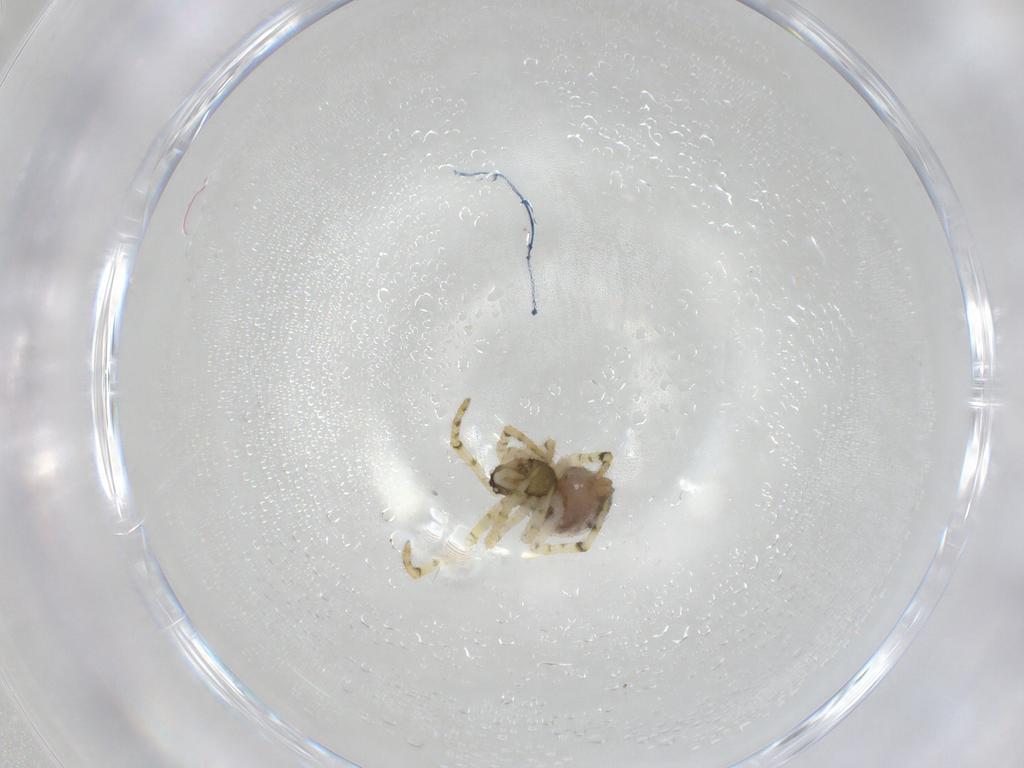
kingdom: Animalia
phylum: Arthropoda
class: Arachnida
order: Araneae
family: Theridiidae
